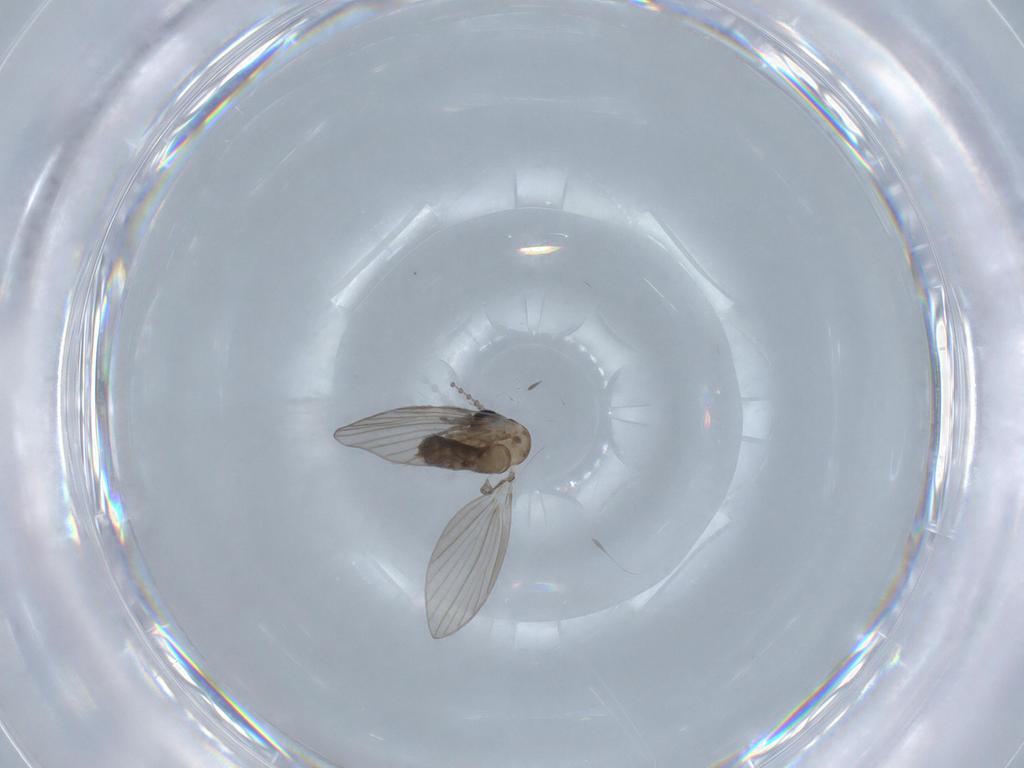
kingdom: Animalia
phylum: Arthropoda
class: Insecta
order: Diptera
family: Psychodidae
